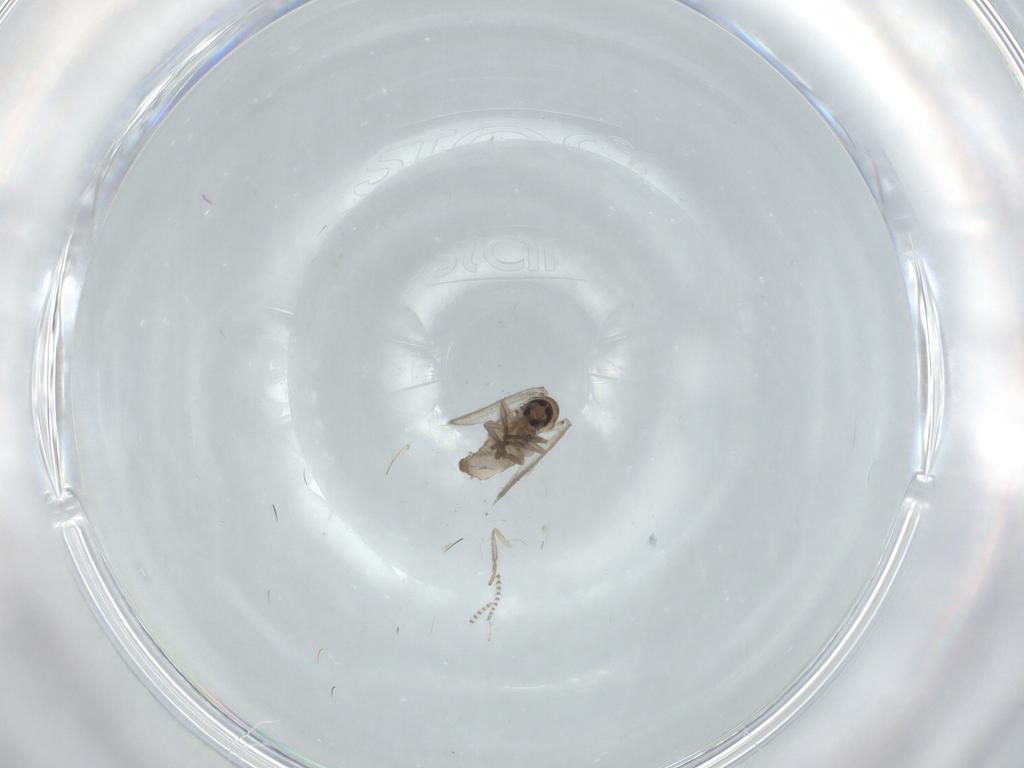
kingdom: Animalia
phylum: Arthropoda
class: Insecta
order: Diptera
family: Psychodidae
